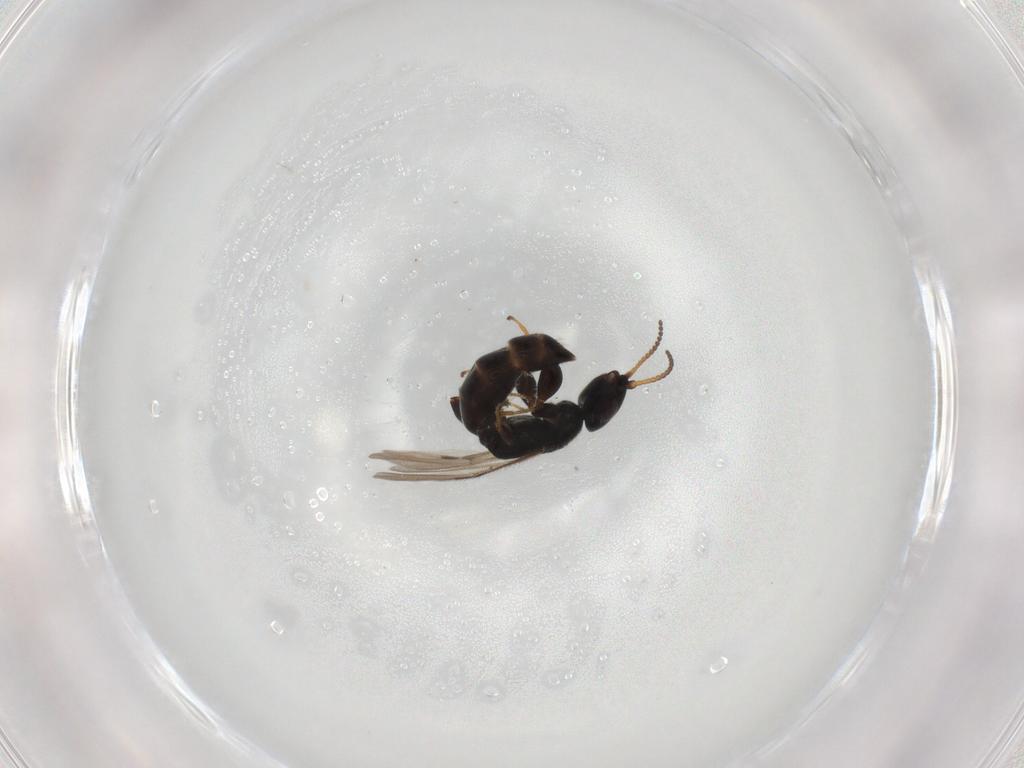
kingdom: Animalia
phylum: Arthropoda
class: Insecta
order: Hymenoptera
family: Bethylidae
